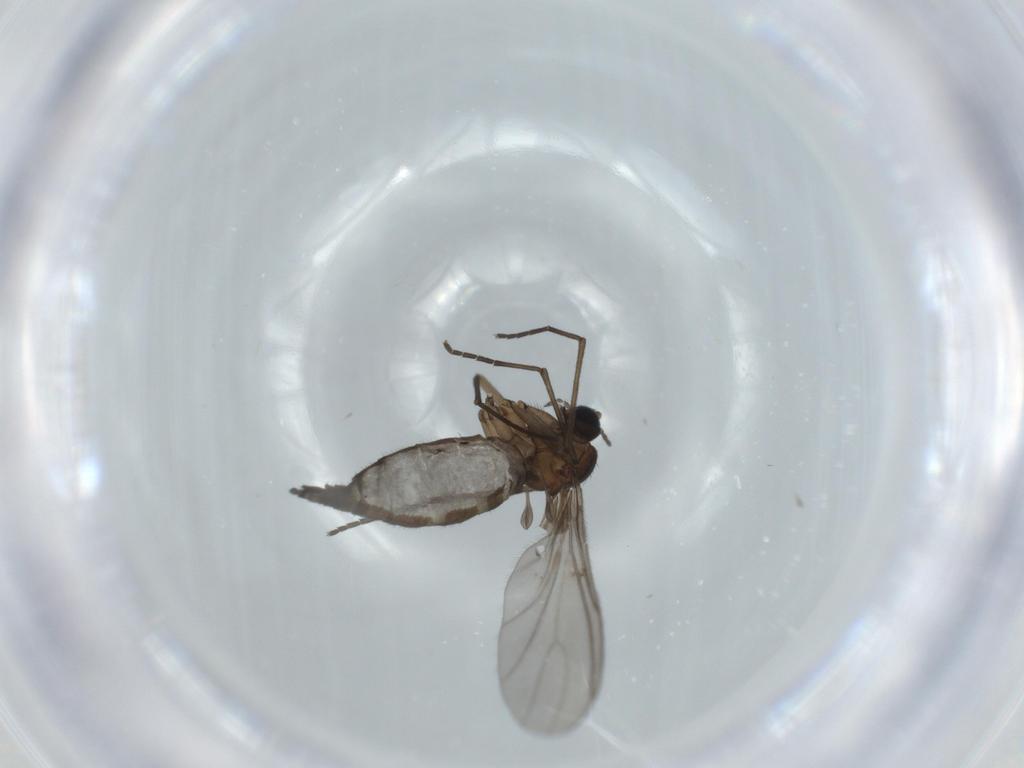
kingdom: Animalia
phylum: Arthropoda
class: Insecta
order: Diptera
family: Sciaridae
